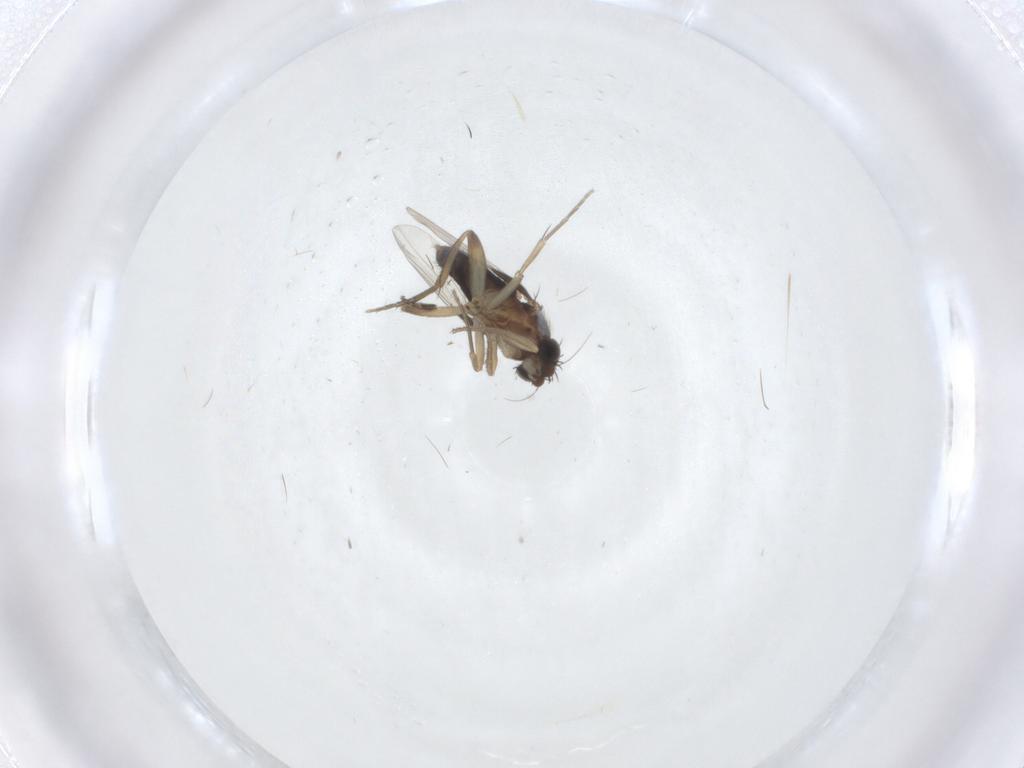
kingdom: Animalia
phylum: Arthropoda
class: Insecta
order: Diptera
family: Phoridae
